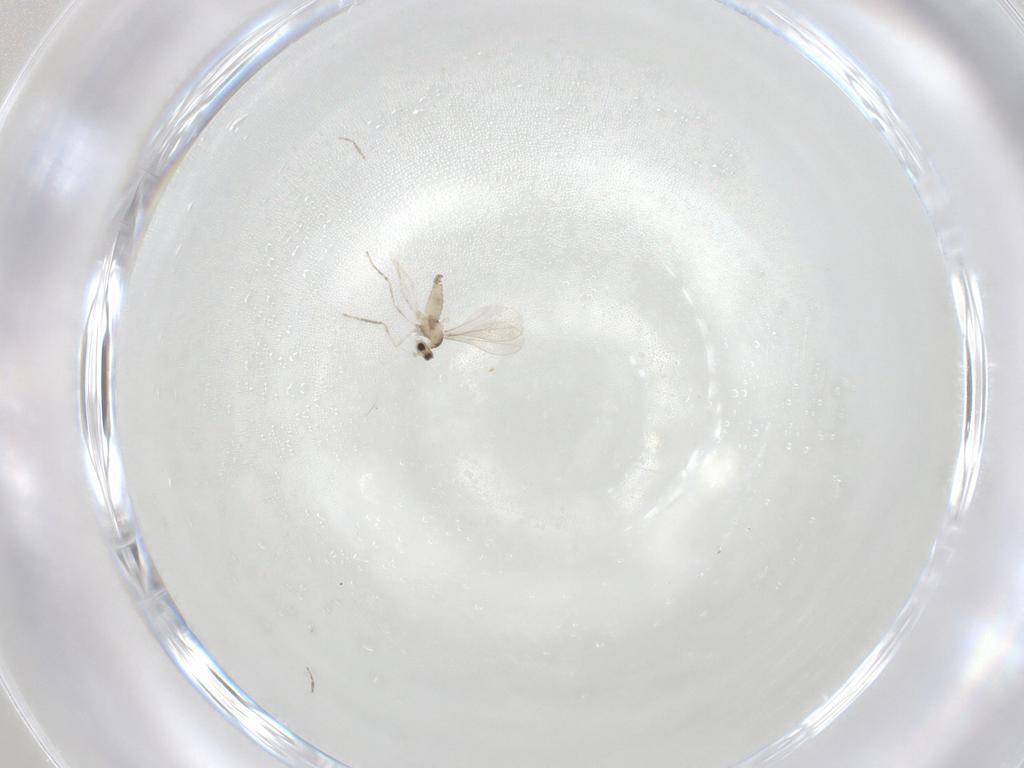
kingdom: Animalia
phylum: Arthropoda
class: Insecta
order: Diptera
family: Cecidomyiidae
